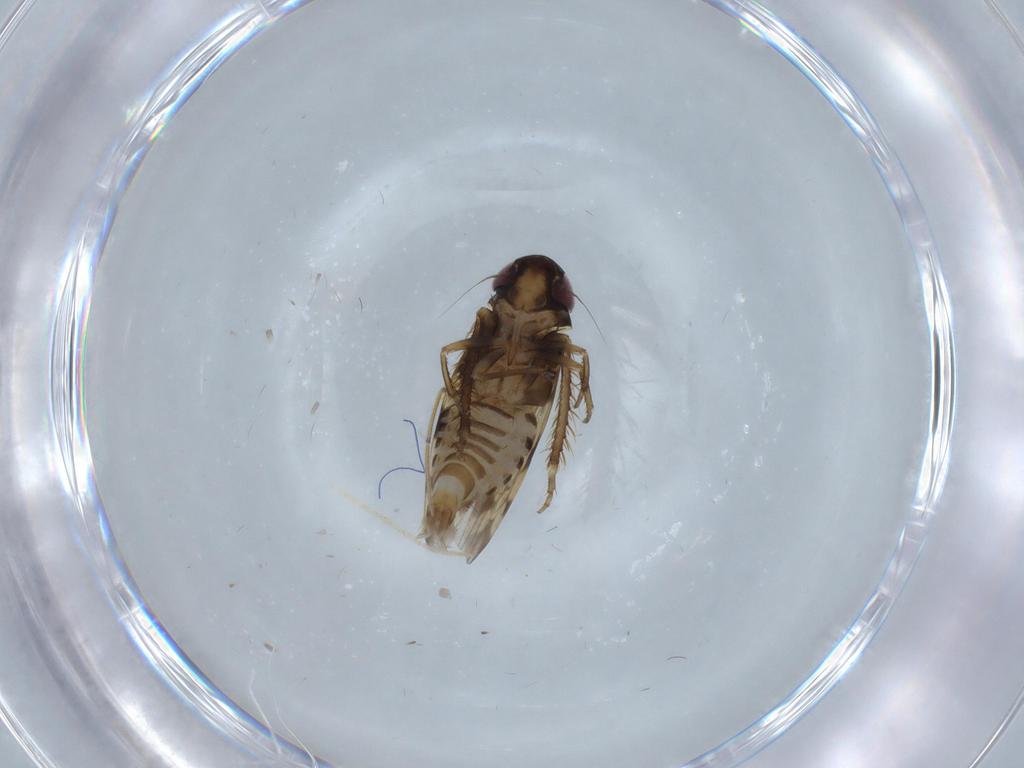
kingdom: Animalia
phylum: Arthropoda
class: Insecta
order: Hemiptera
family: Cicadellidae
